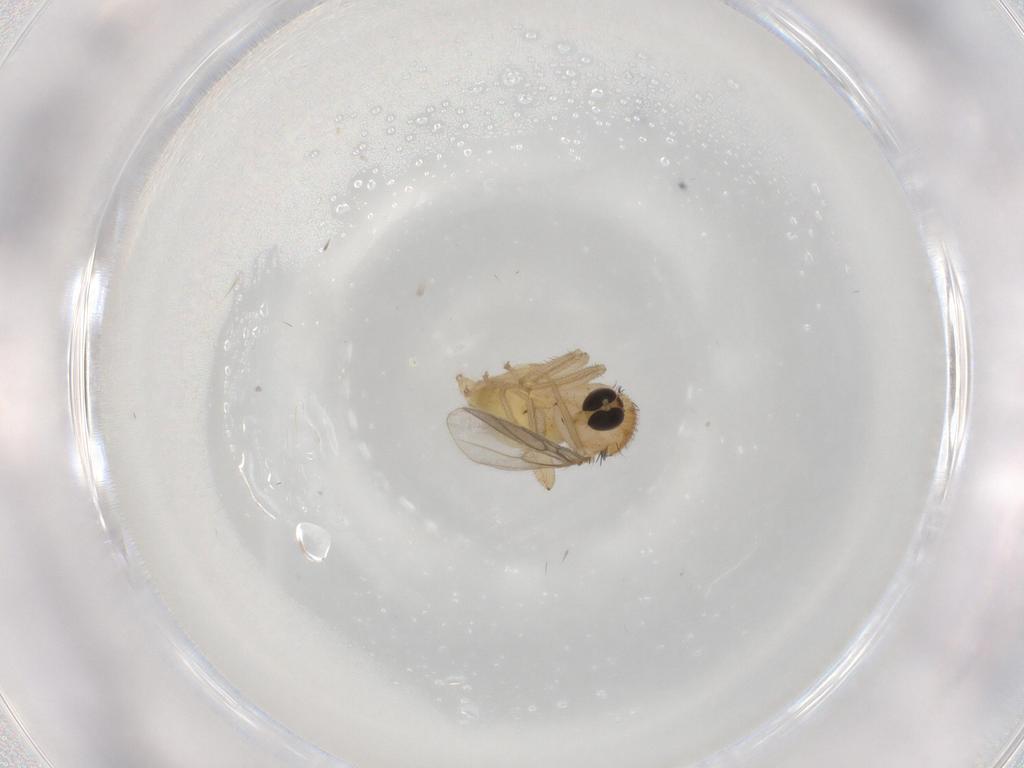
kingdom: Animalia
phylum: Arthropoda
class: Insecta
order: Diptera
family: Hybotidae
